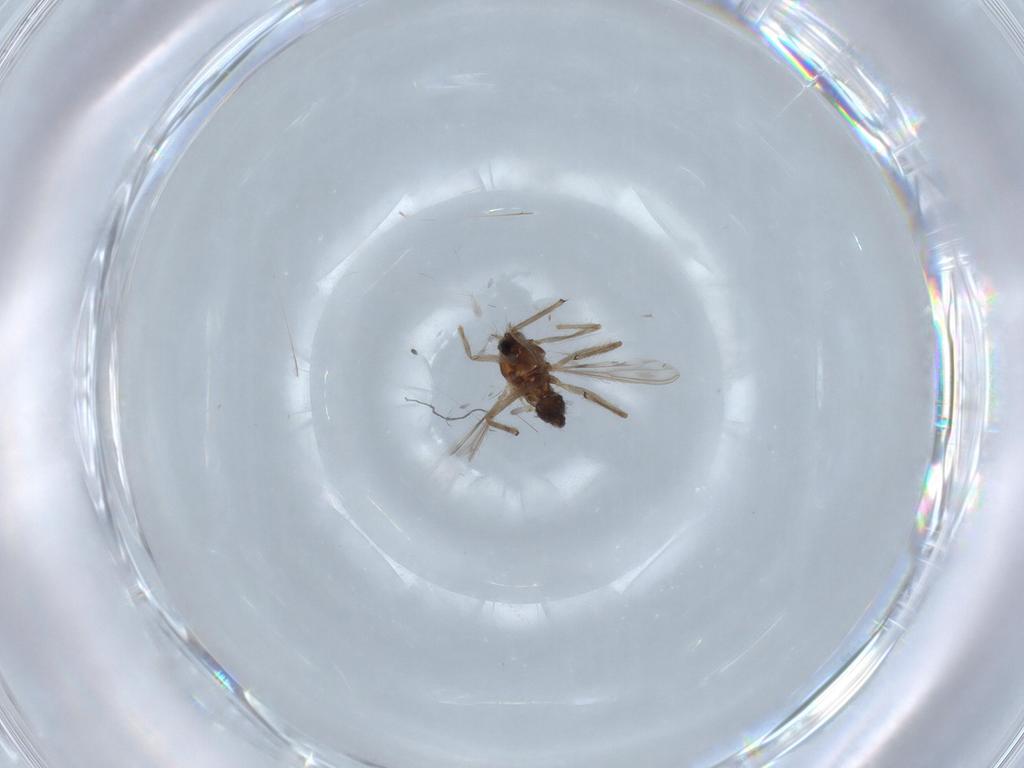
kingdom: Animalia
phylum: Arthropoda
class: Insecta
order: Diptera
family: Chironomidae
